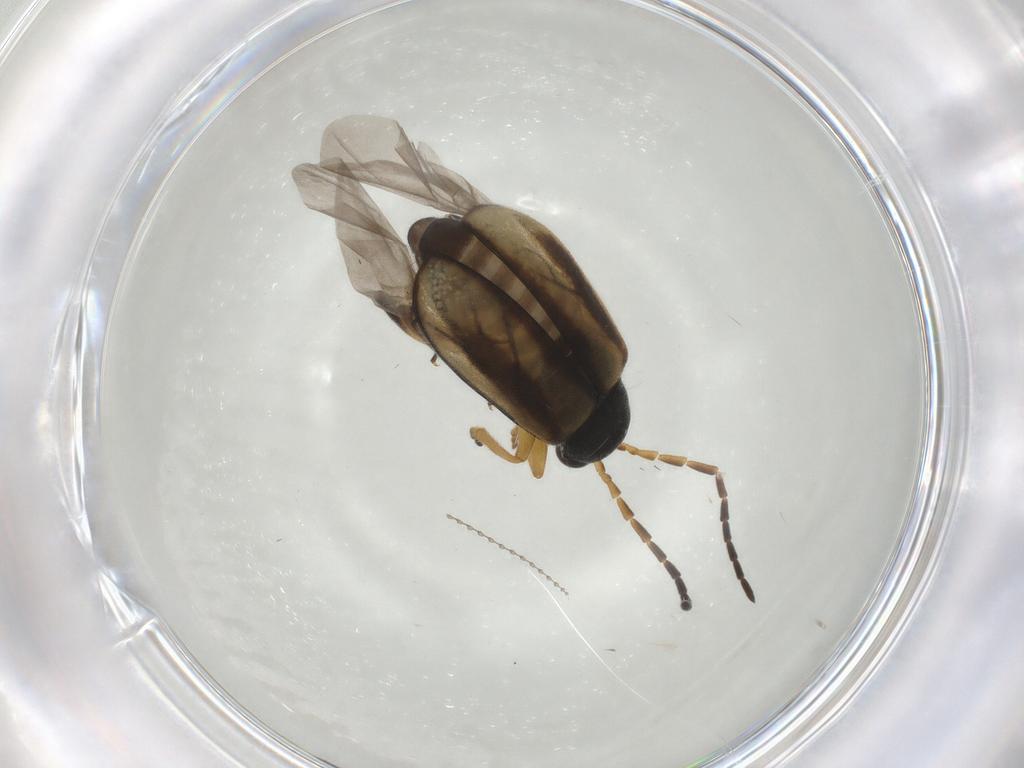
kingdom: Animalia
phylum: Arthropoda
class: Insecta
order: Coleoptera
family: Chrysomelidae
